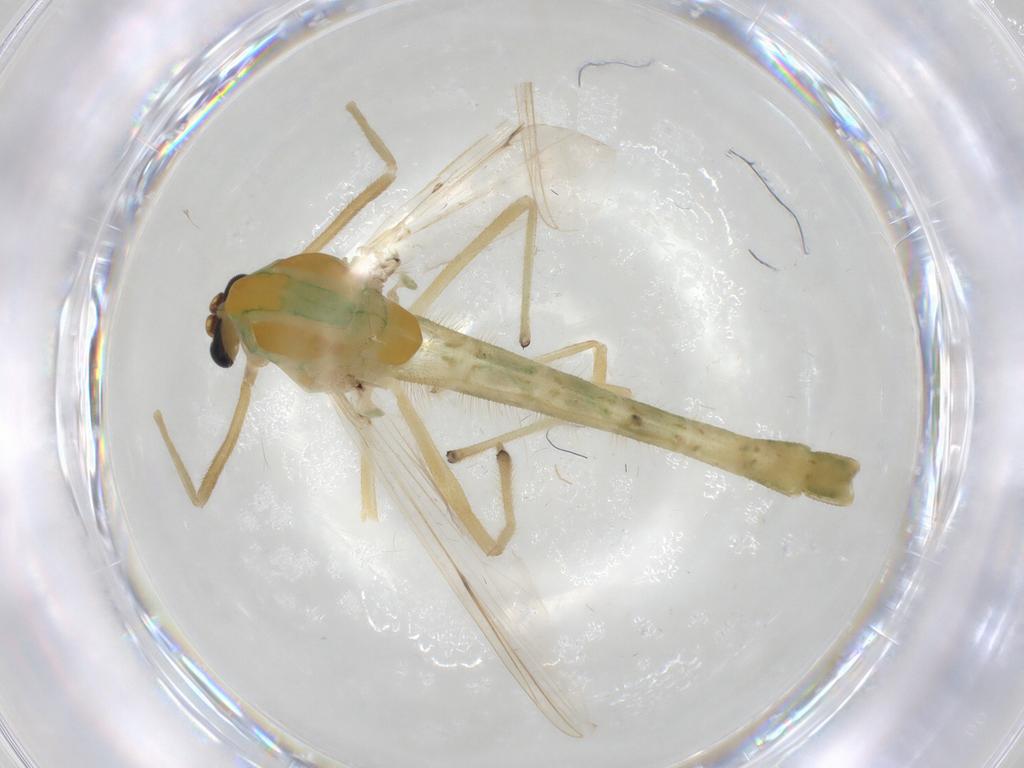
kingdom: Animalia
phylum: Arthropoda
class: Insecta
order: Diptera
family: Chironomidae
